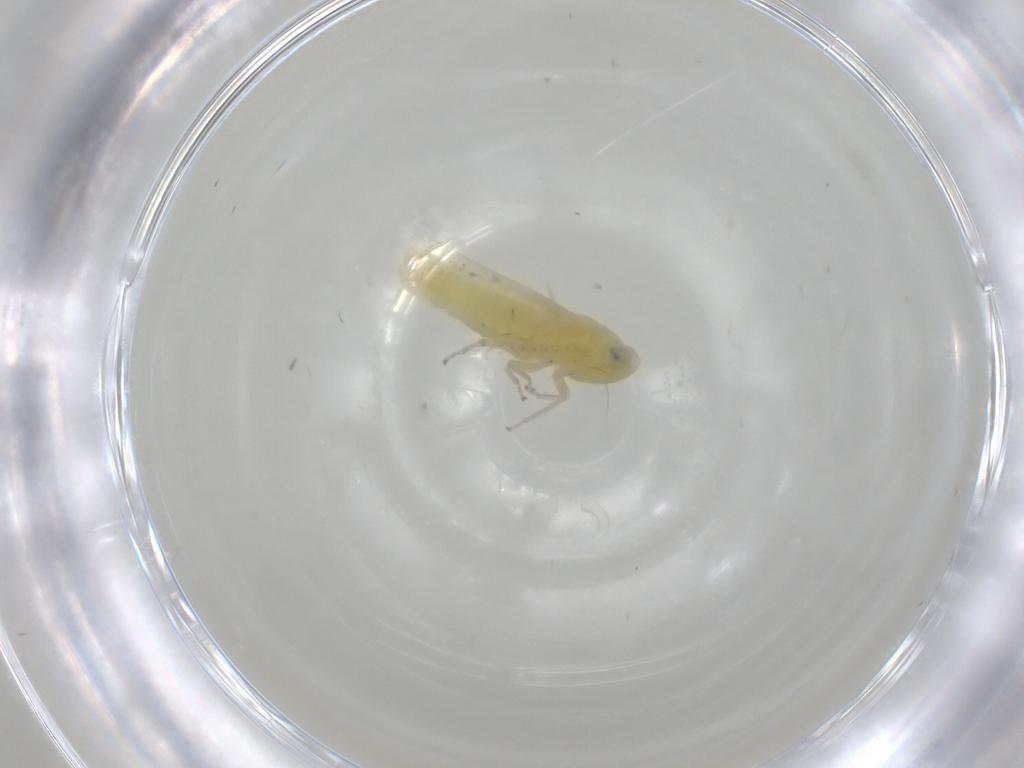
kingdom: Animalia
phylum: Arthropoda
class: Insecta
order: Hemiptera
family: Cicadellidae
